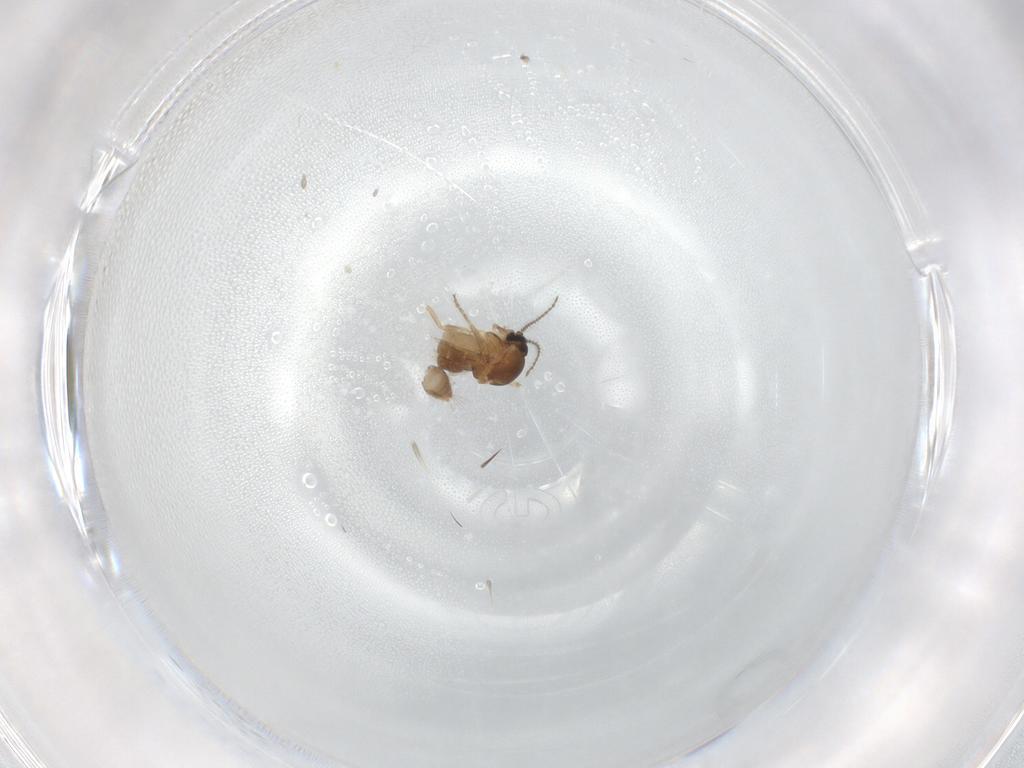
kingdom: Animalia
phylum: Arthropoda
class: Insecta
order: Diptera
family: Ceratopogonidae
